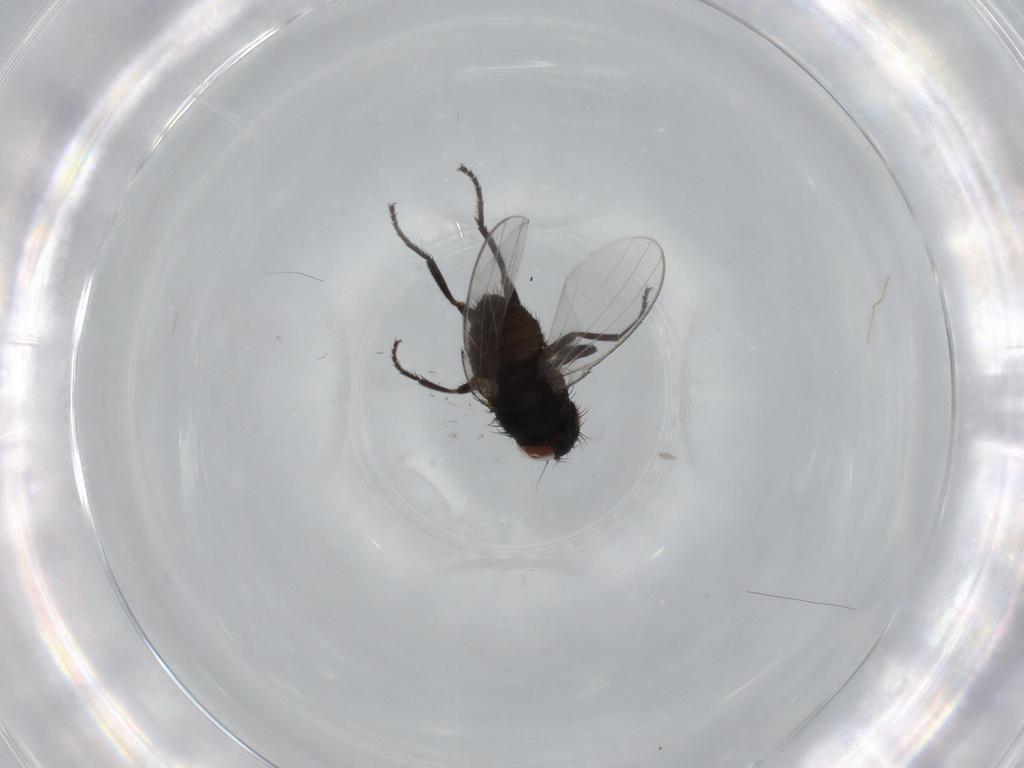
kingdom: Animalia
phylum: Arthropoda
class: Insecta
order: Diptera
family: Milichiidae
